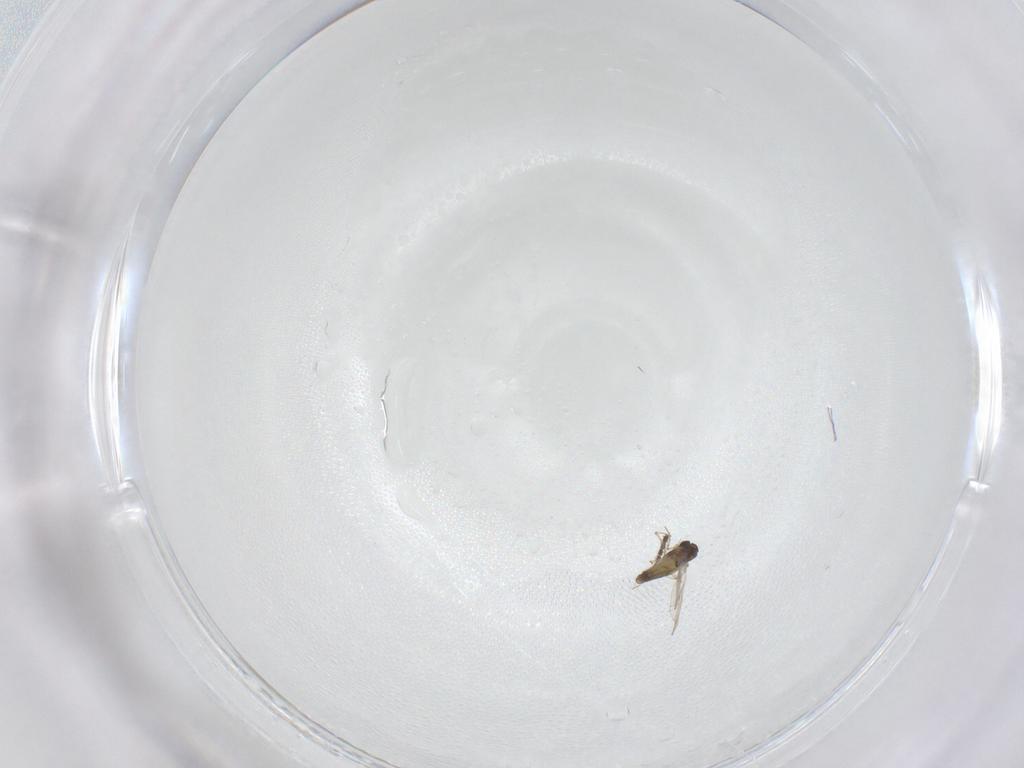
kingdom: Animalia
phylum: Arthropoda
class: Insecta
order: Diptera
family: Chironomidae
